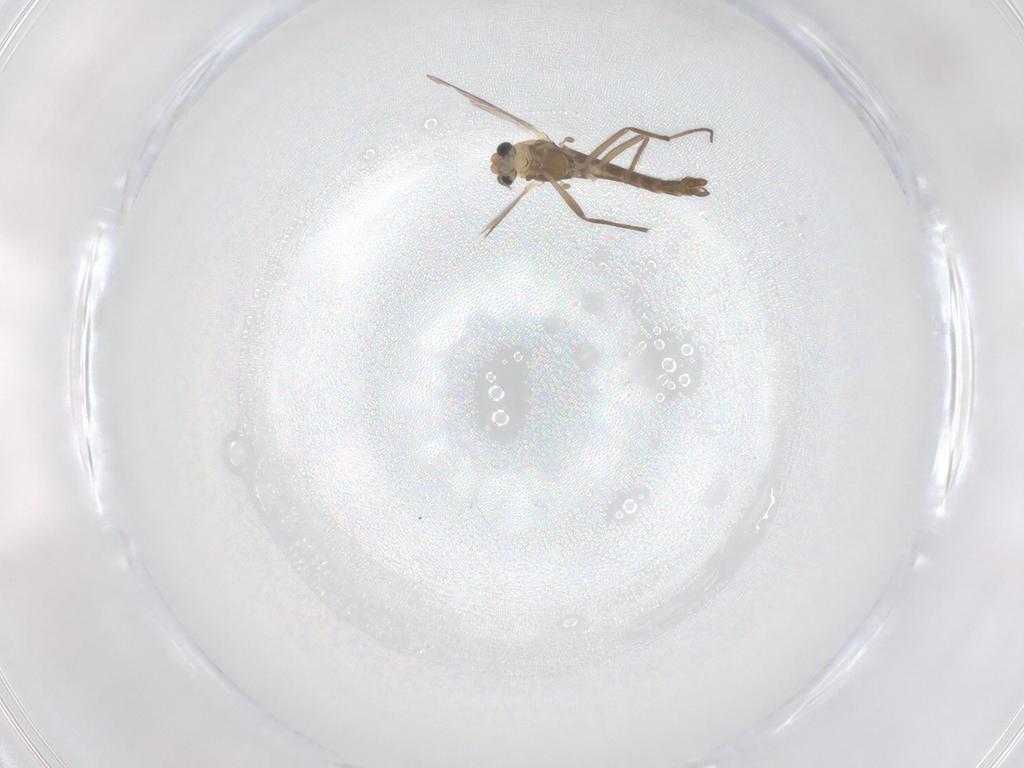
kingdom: Animalia
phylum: Arthropoda
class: Insecta
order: Diptera
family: Chironomidae
